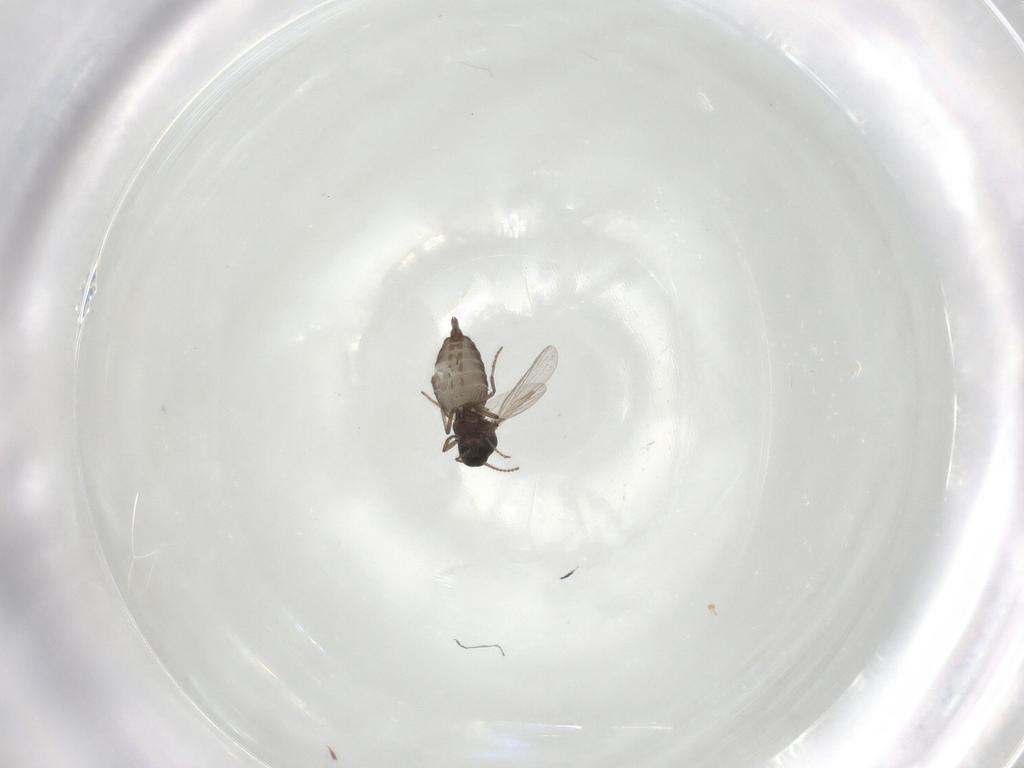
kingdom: Animalia
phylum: Arthropoda
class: Insecta
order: Diptera
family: Ceratopogonidae
